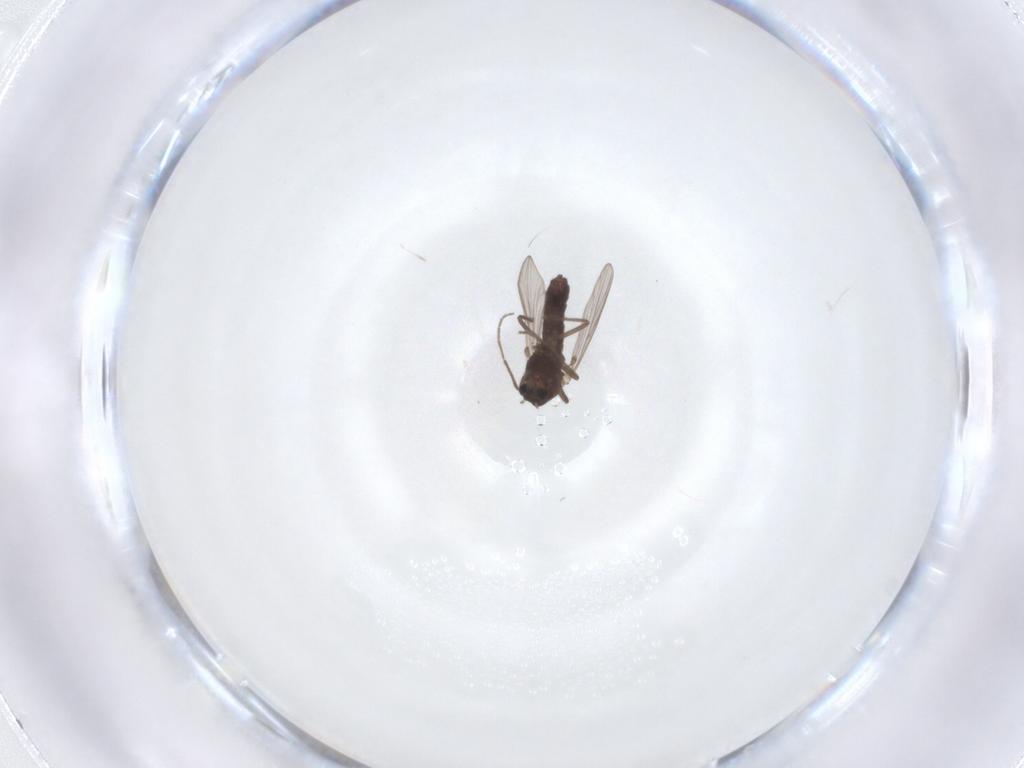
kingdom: Animalia
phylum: Arthropoda
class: Insecta
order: Diptera
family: Chironomidae
